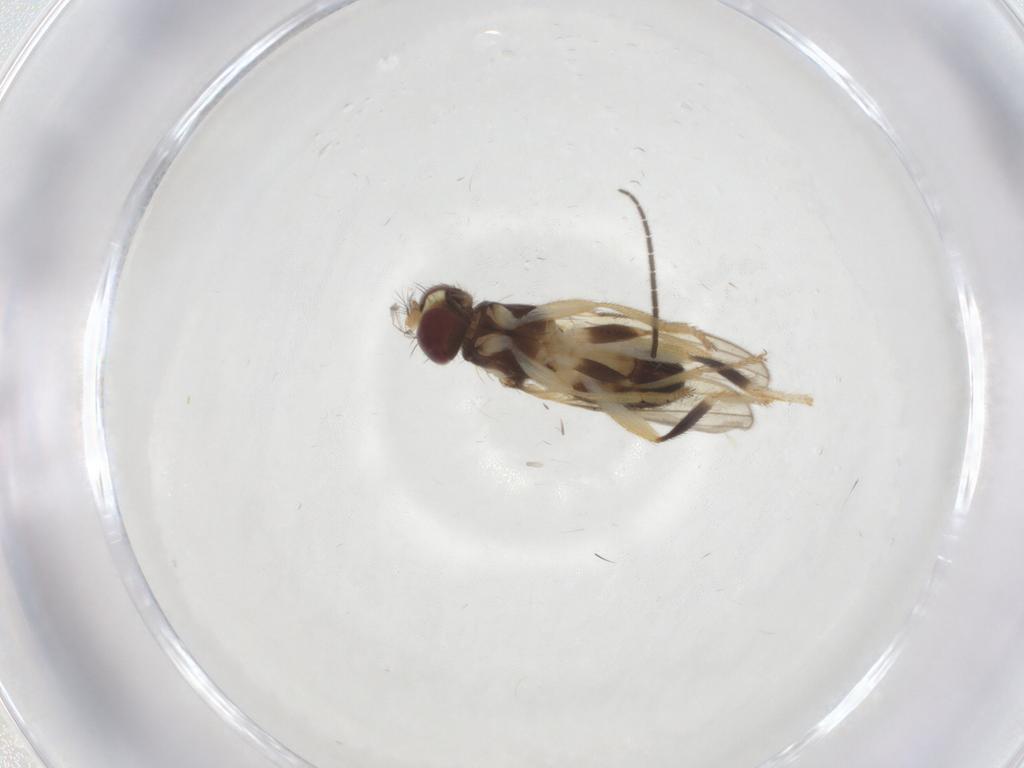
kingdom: Animalia
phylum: Arthropoda
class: Insecta
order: Diptera
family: Periscelididae
